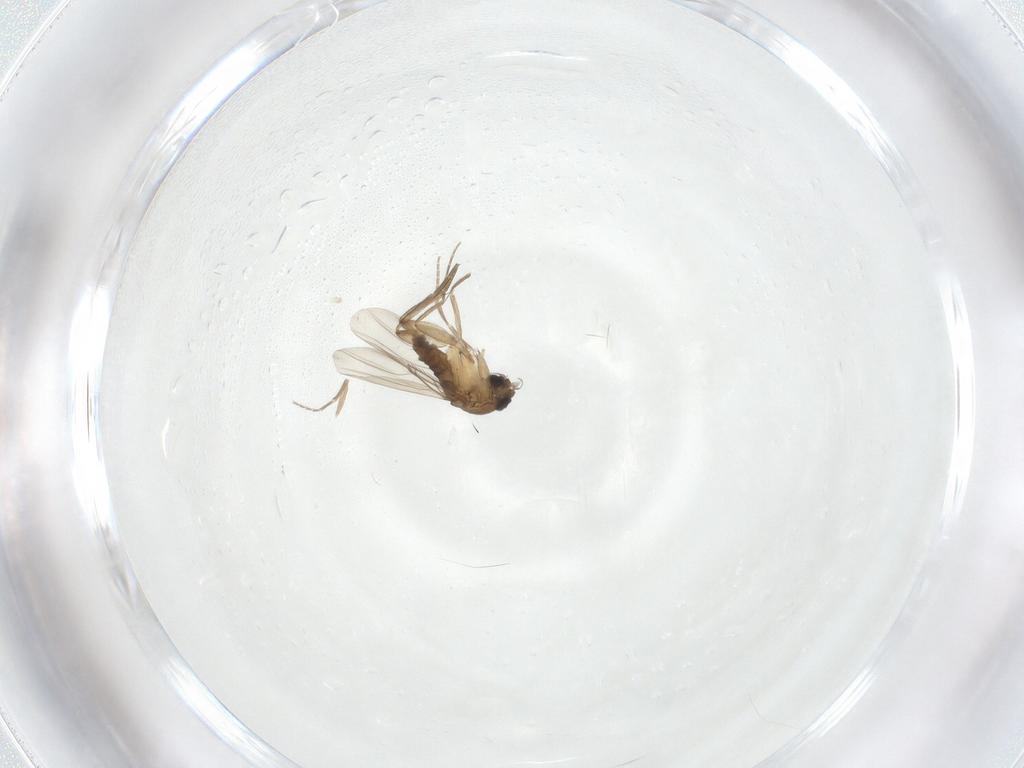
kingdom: Animalia
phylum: Arthropoda
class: Insecta
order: Diptera
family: Phoridae
